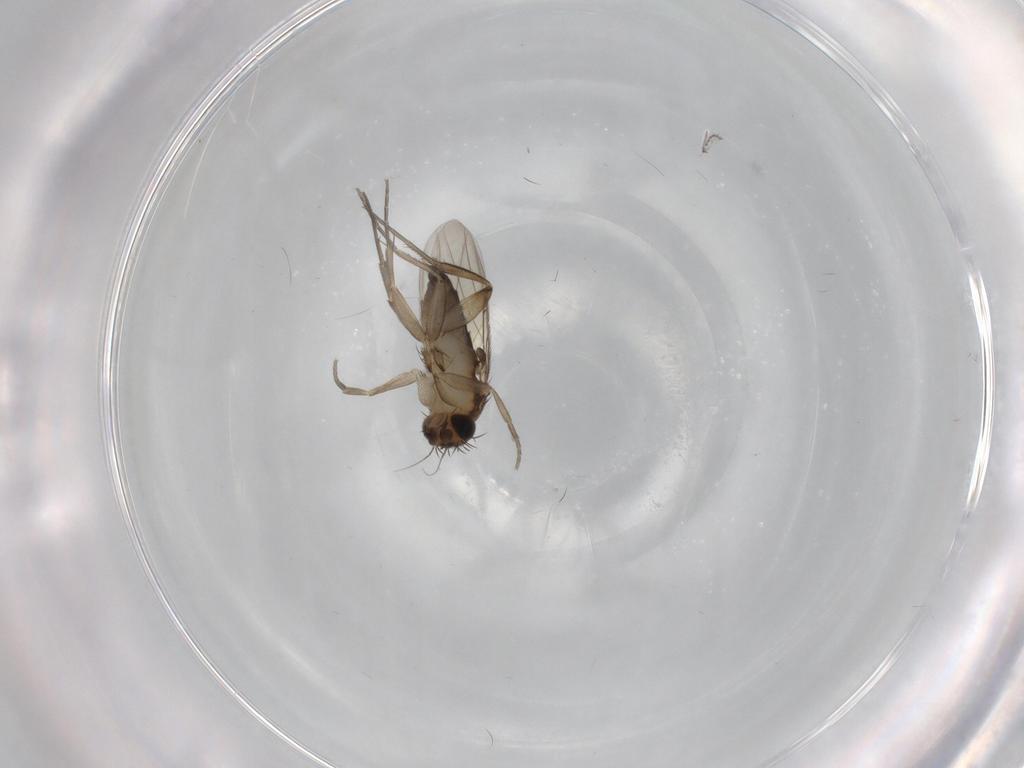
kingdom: Animalia
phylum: Arthropoda
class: Insecta
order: Diptera
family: Phoridae
